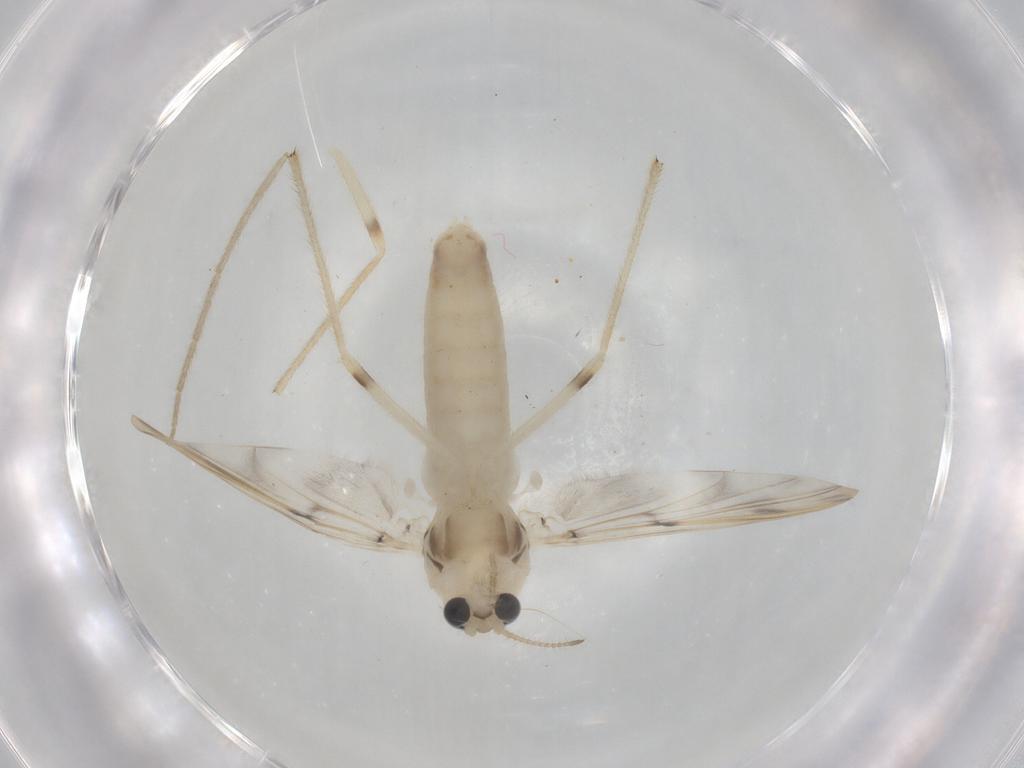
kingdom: Animalia
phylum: Arthropoda
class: Insecta
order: Diptera
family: Chironomidae
